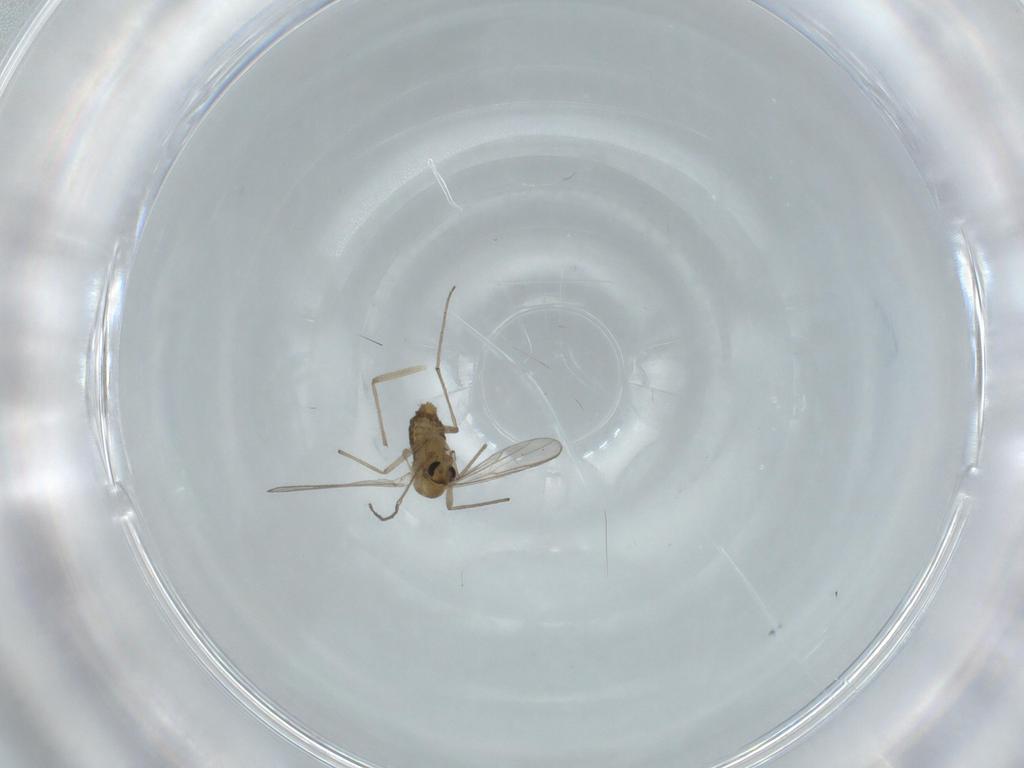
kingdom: Animalia
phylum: Arthropoda
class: Insecta
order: Diptera
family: Chironomidae
